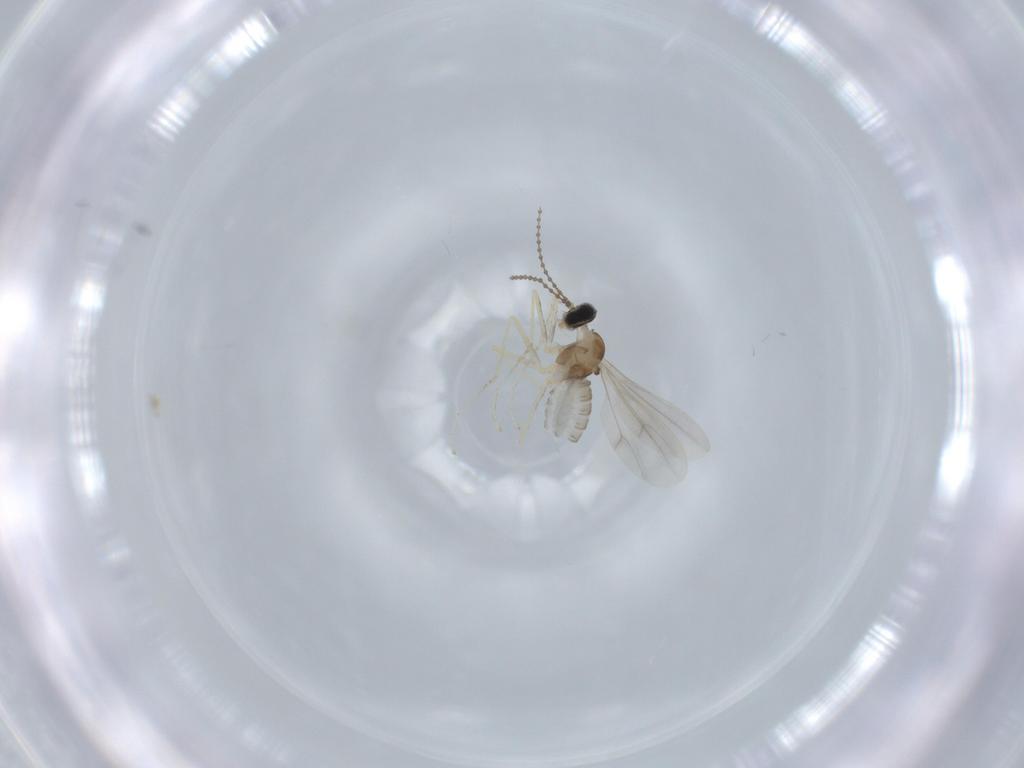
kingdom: Animalia
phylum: Arthropoda
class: Insecta
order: Diptera
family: Cecidomyiidae
